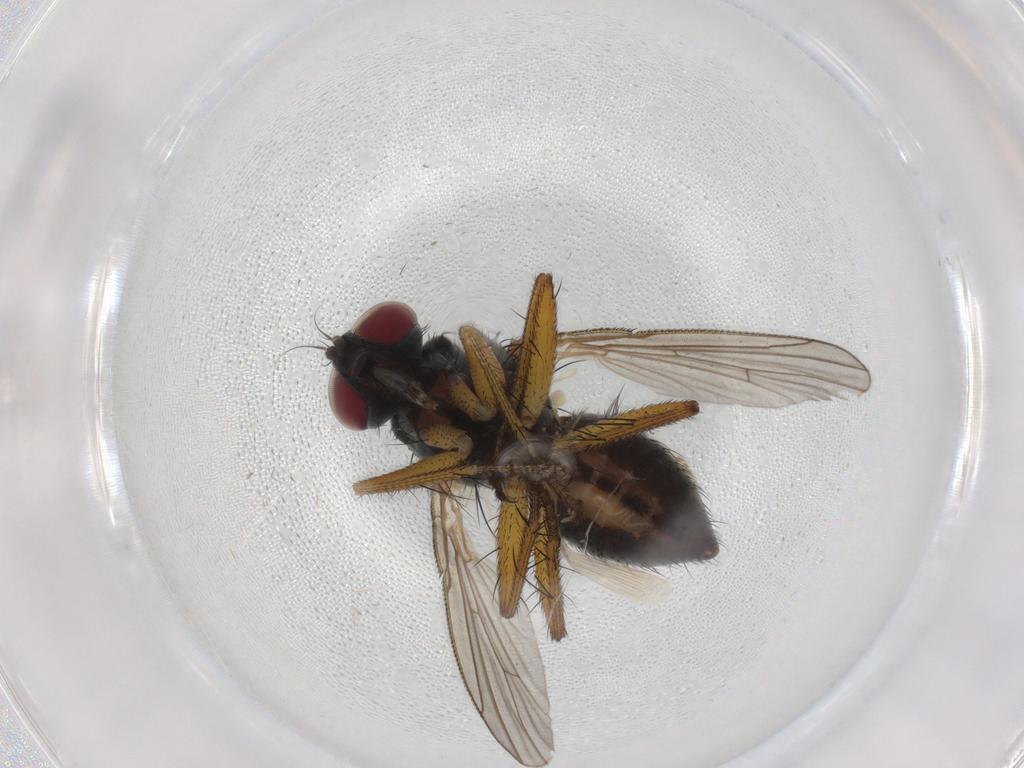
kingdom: Animalia
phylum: Arthropoda
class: Insecta
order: Diptera
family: Muscidae
